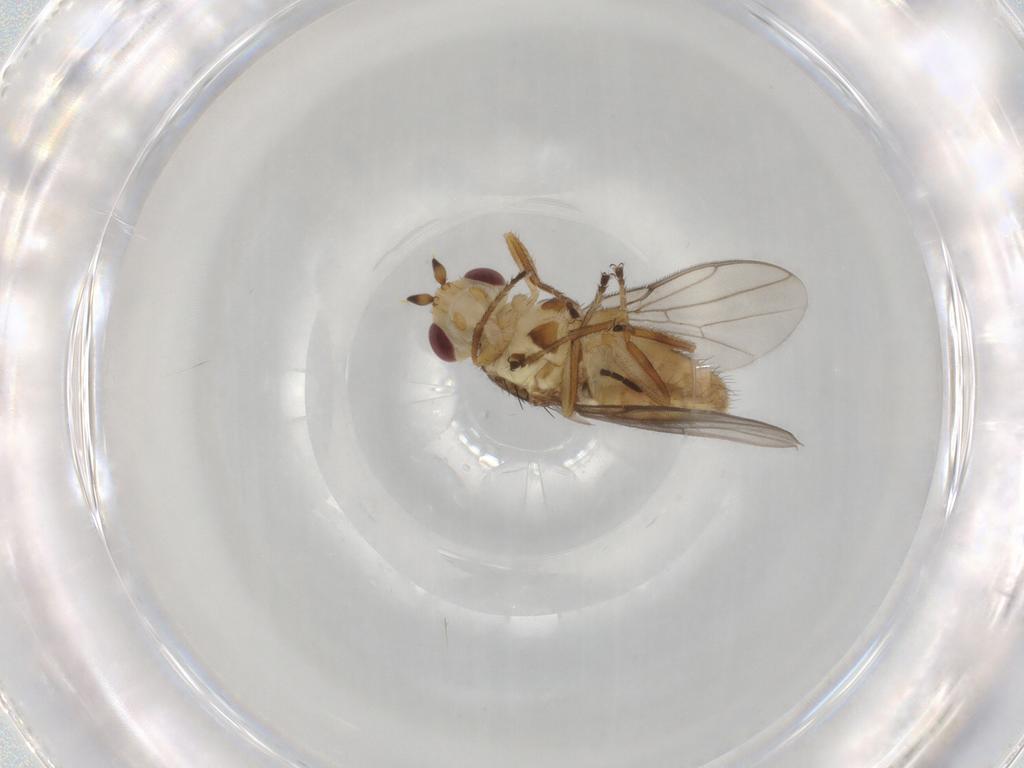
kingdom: Animalia
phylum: Arthropoda
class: Insecta
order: Diptera
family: Chloropidae
